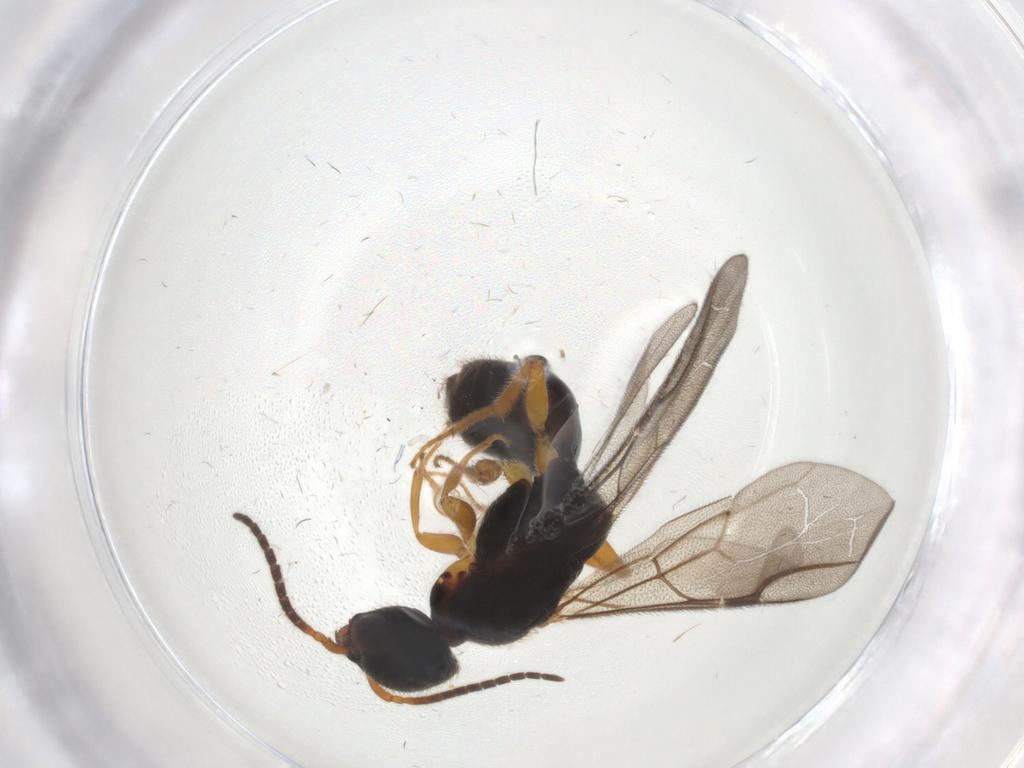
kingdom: Animalia
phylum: Arthropoda
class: Insecta
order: Hymenoptera
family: Bethylidae
